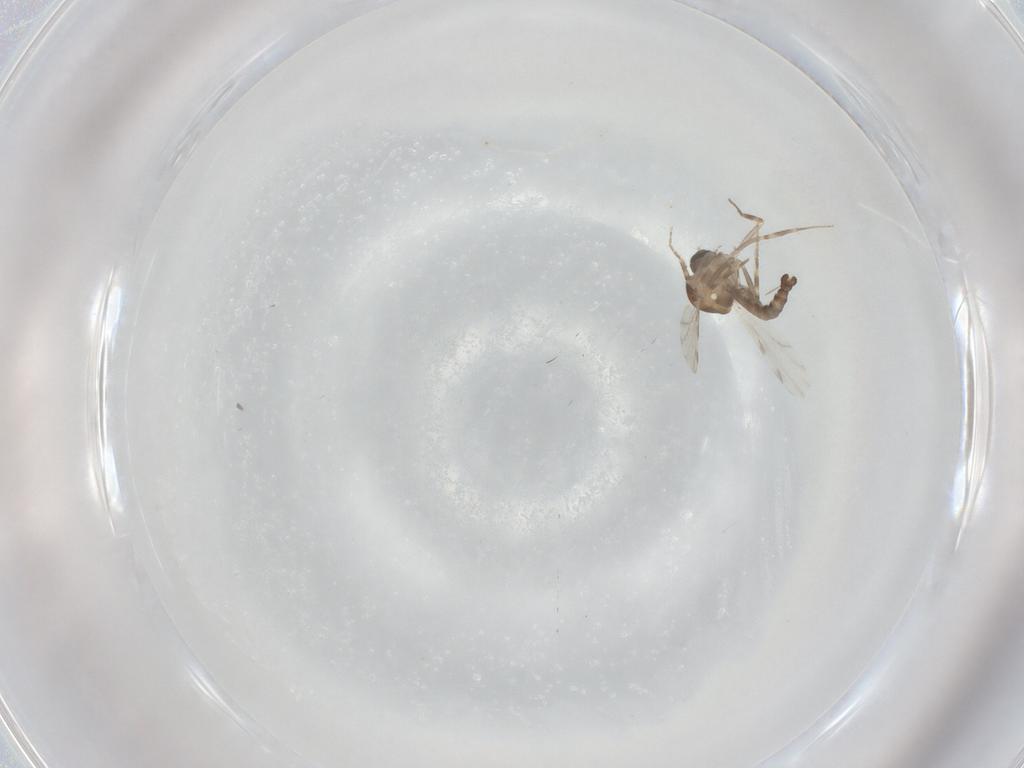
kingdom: Animalia
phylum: Arthropoda
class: Insecta
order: Diptera
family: Ceratopogonidae
